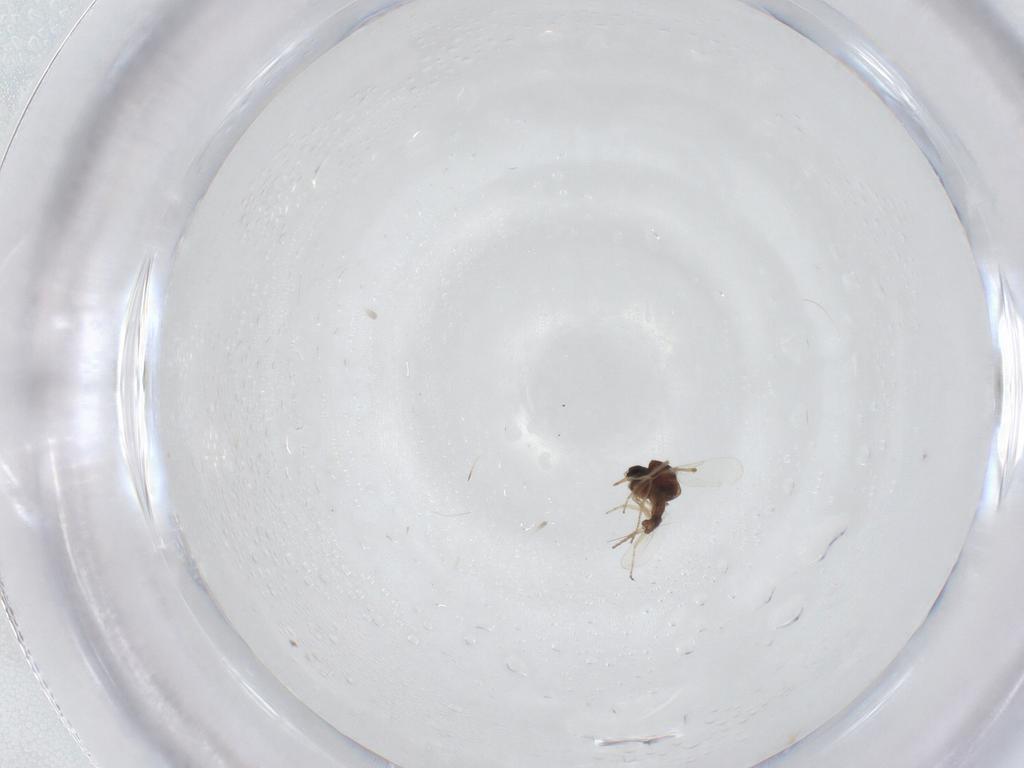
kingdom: Animalia
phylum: Arthropoda
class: Insecta
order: Diptera
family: Ceratopogonidae
